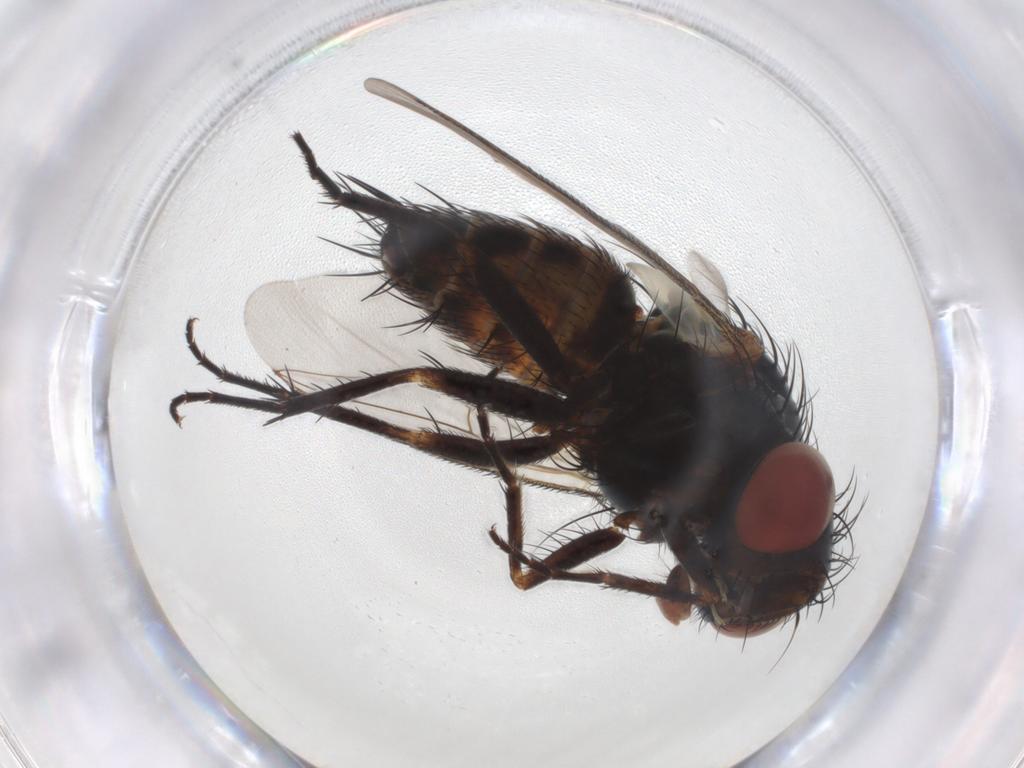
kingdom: Animalia
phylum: Arthropoda
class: Insecta
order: Diptera
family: Sarcophagidae
